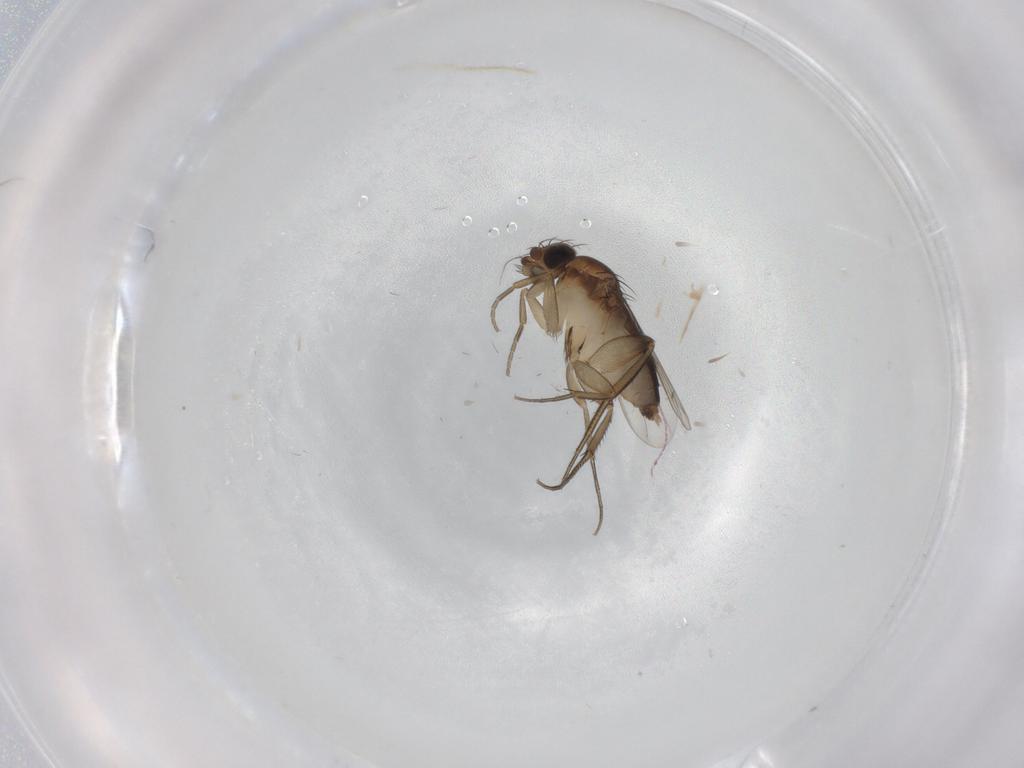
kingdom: Animalia
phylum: Arthropoda
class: Insecta
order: Diptera
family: Phoridae
